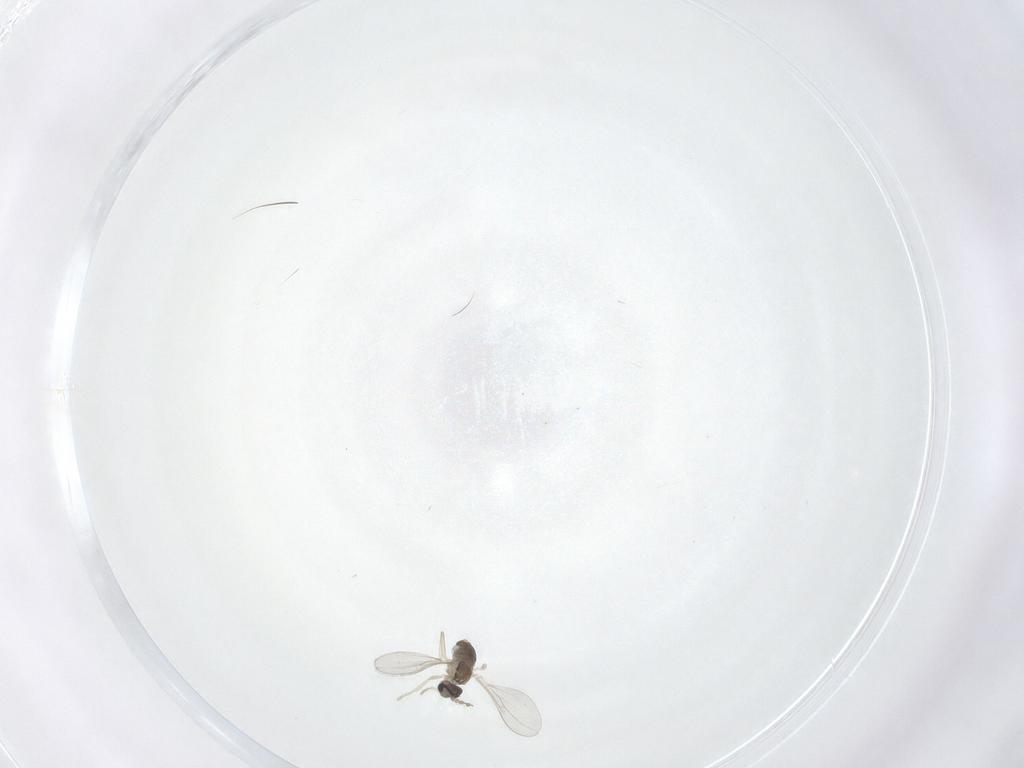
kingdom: Animalia
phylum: Arthropoda
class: Insecta
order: Diptera
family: Cecidomyiidae
